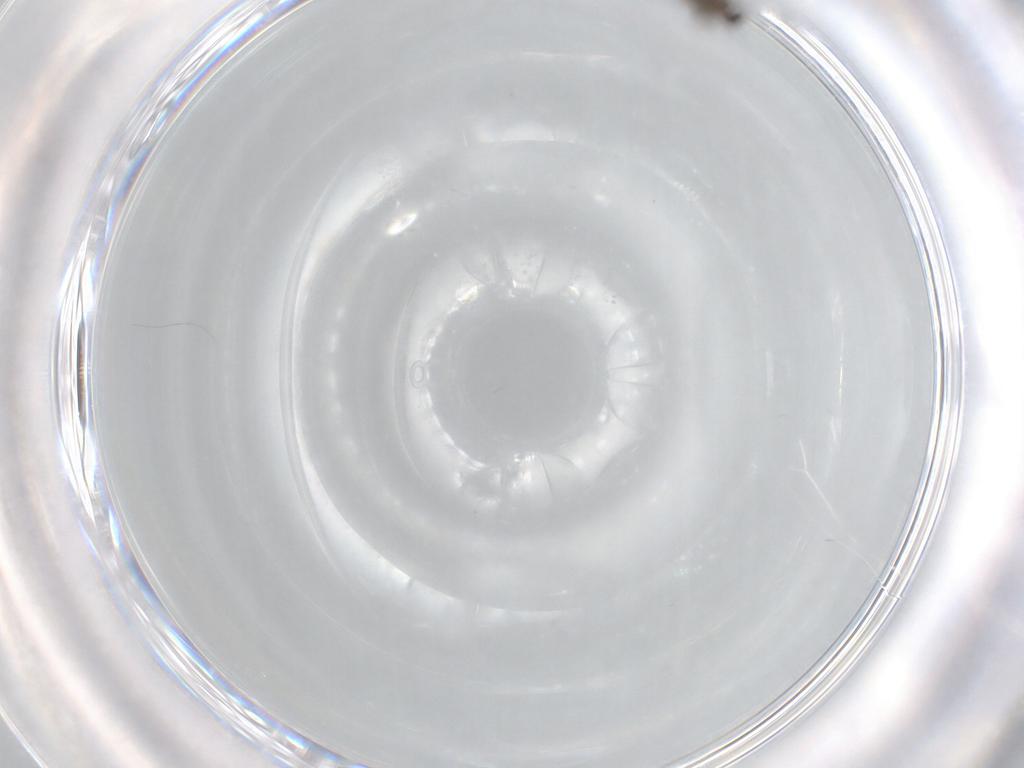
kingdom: Animalia
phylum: Arthropoda
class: Insecta
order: Diptera
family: Cecidomyiidae
